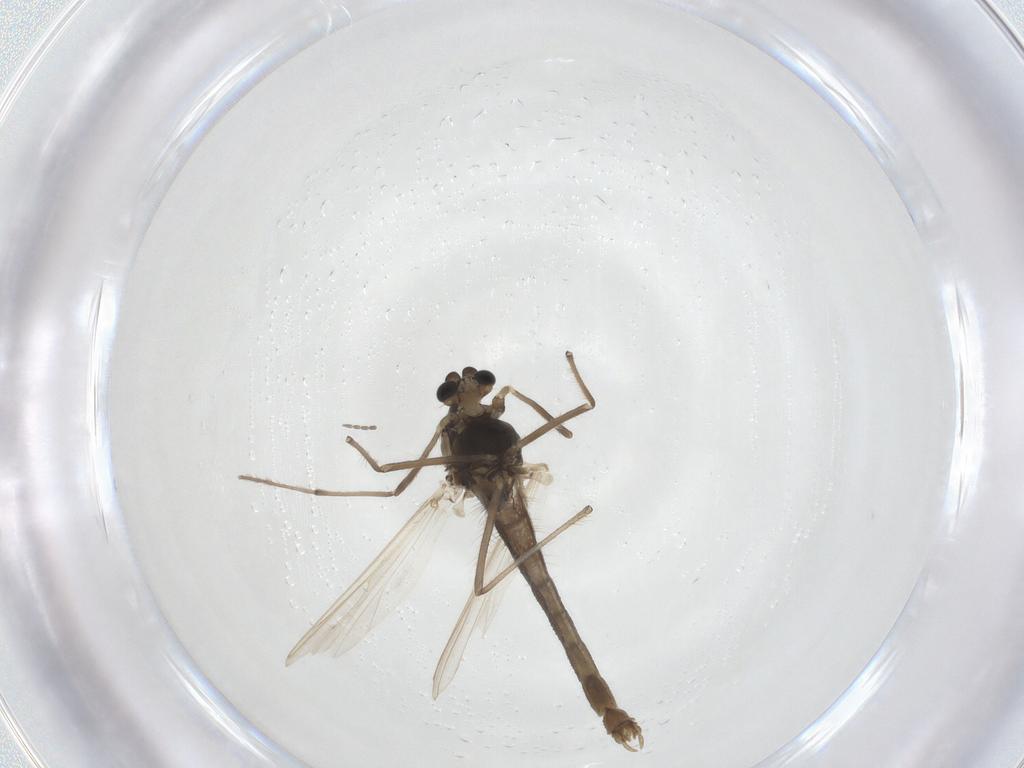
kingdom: Animalia
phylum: Arthropoda
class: Insecta
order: Diptera
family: Chironomidae
